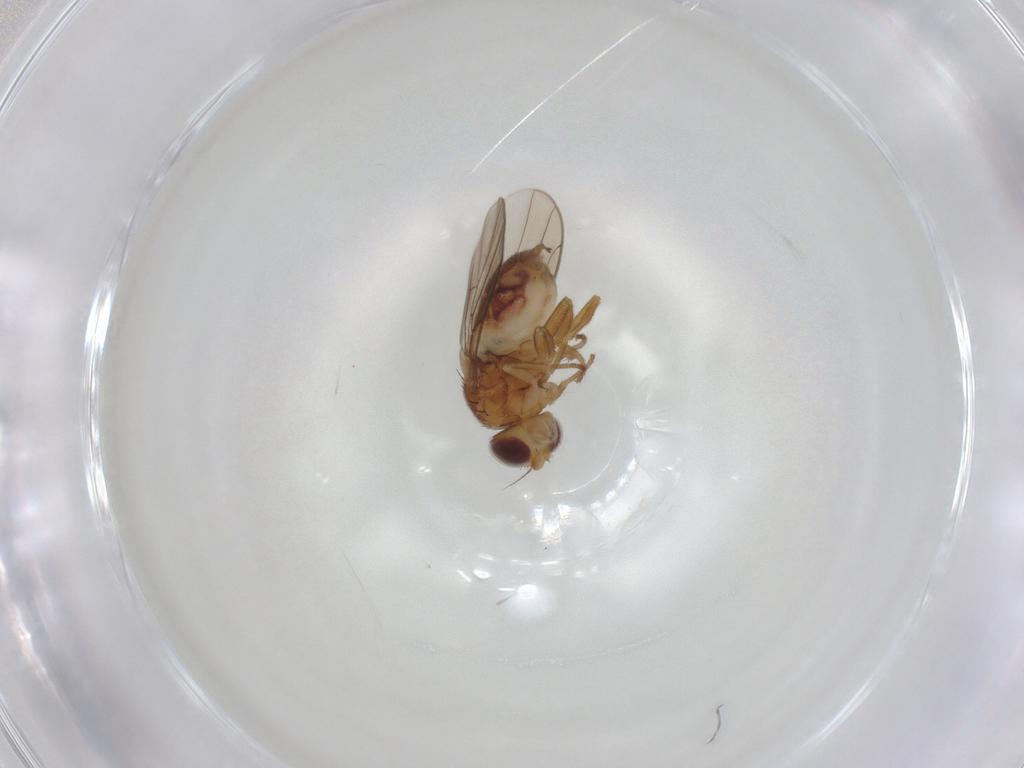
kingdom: Animalia
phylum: Arthropoda
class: Insecta
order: Diptera
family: Chloropidae
